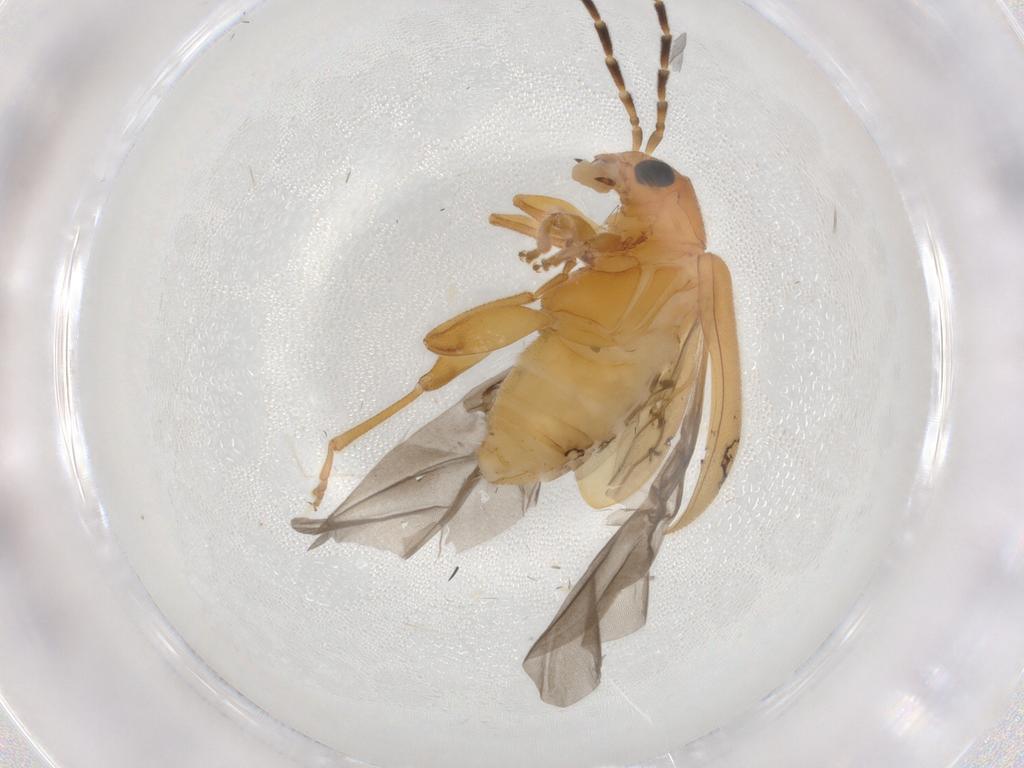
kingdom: Animalia
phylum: Arthropoda
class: Insecta
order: Coleoptera
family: Chrysomelidae
